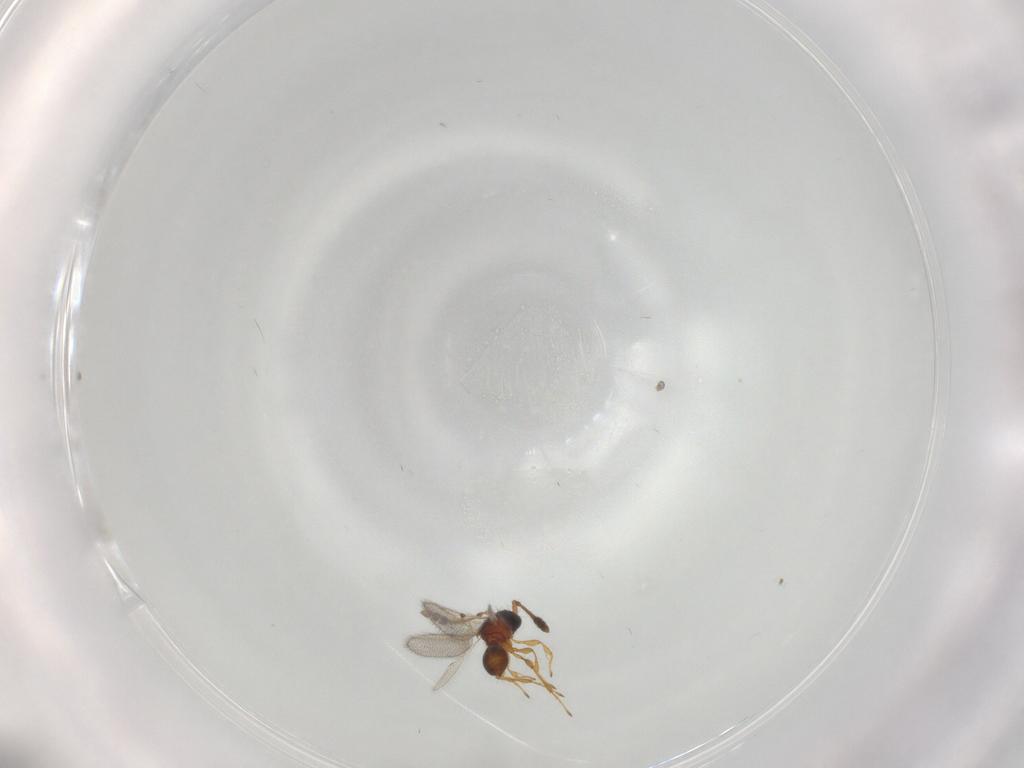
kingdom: Animalia
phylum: Arthropoda
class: Insecta
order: Hymenoptera
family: Diapriidae
